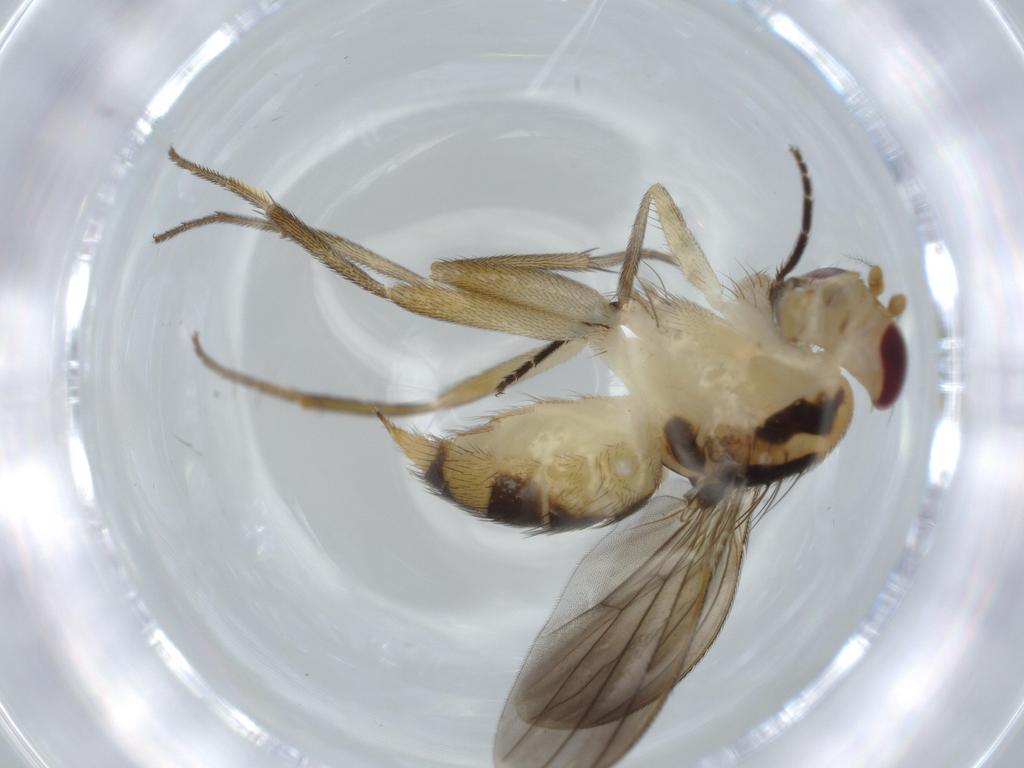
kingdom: Animalia
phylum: Arthropoda
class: Insecta
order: Diptera
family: Clusiidae
